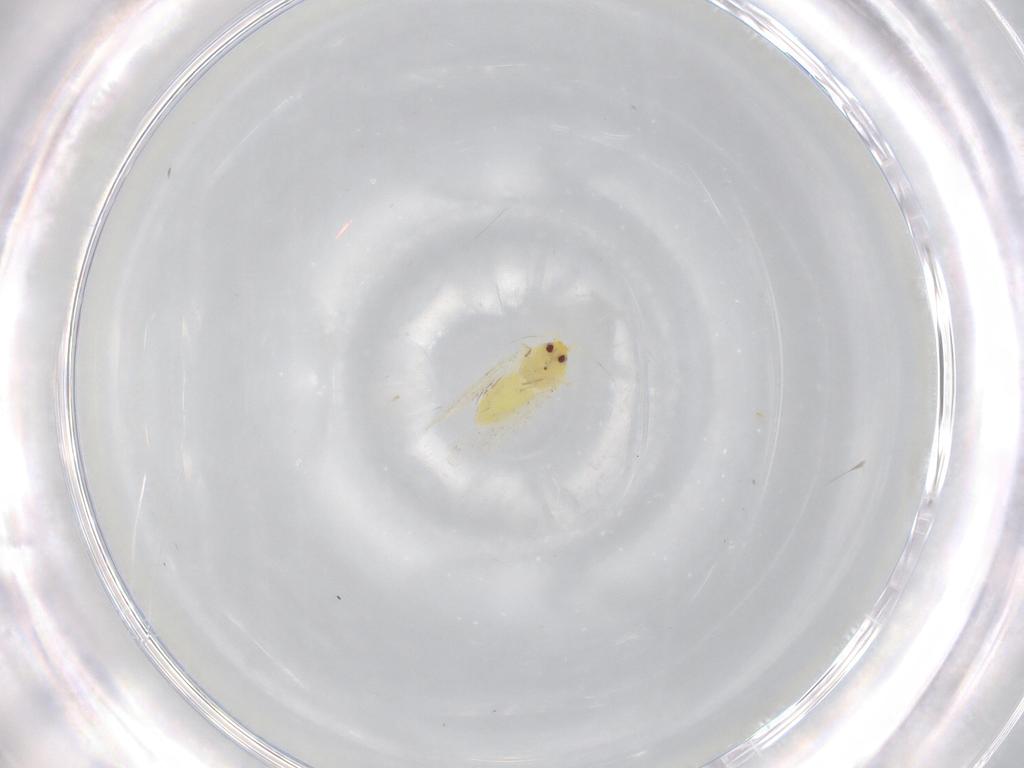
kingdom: Animalia
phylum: Arthropoda
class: Insecta
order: Hemiptera
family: Aleyrodidae
